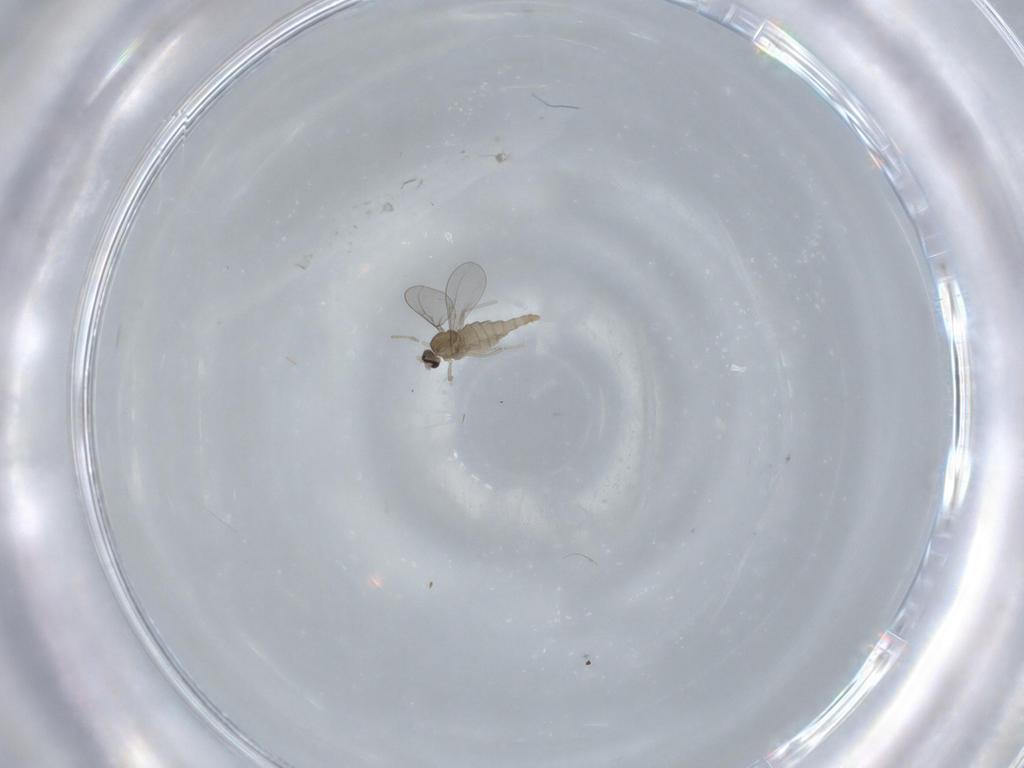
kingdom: Animalia
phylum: Arthropoda
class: Insecta
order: Diptera
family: Cecidomyiidae
